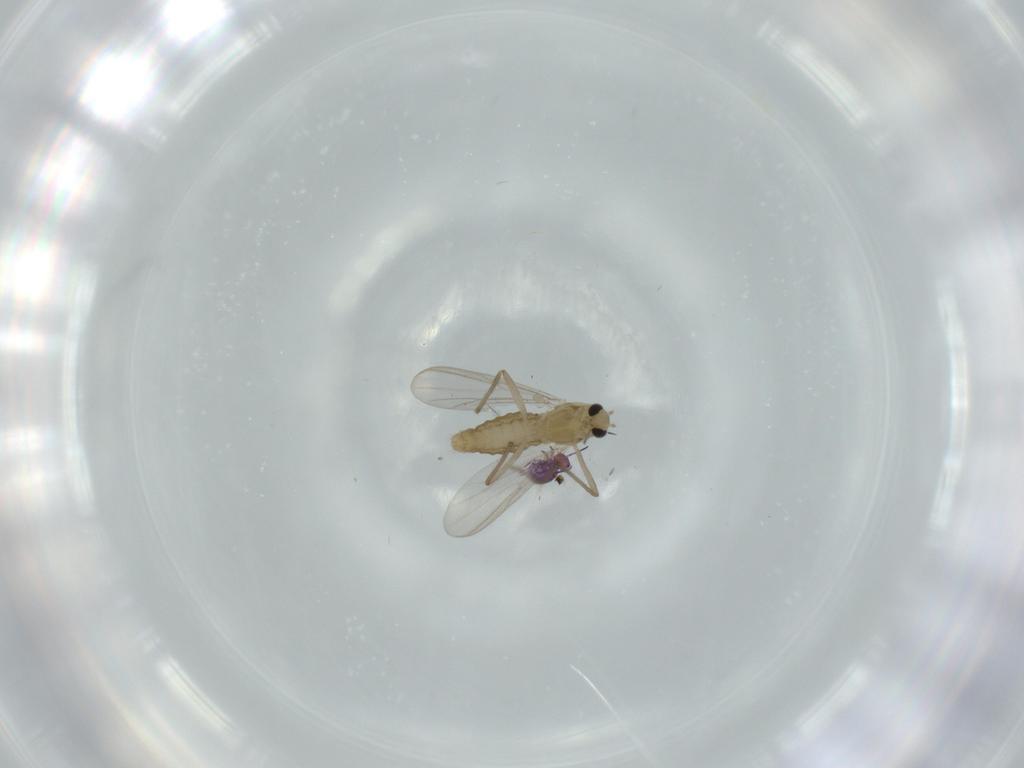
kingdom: Animalia
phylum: Arthropoda
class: Insecta
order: Diptera
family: Chironomidae
